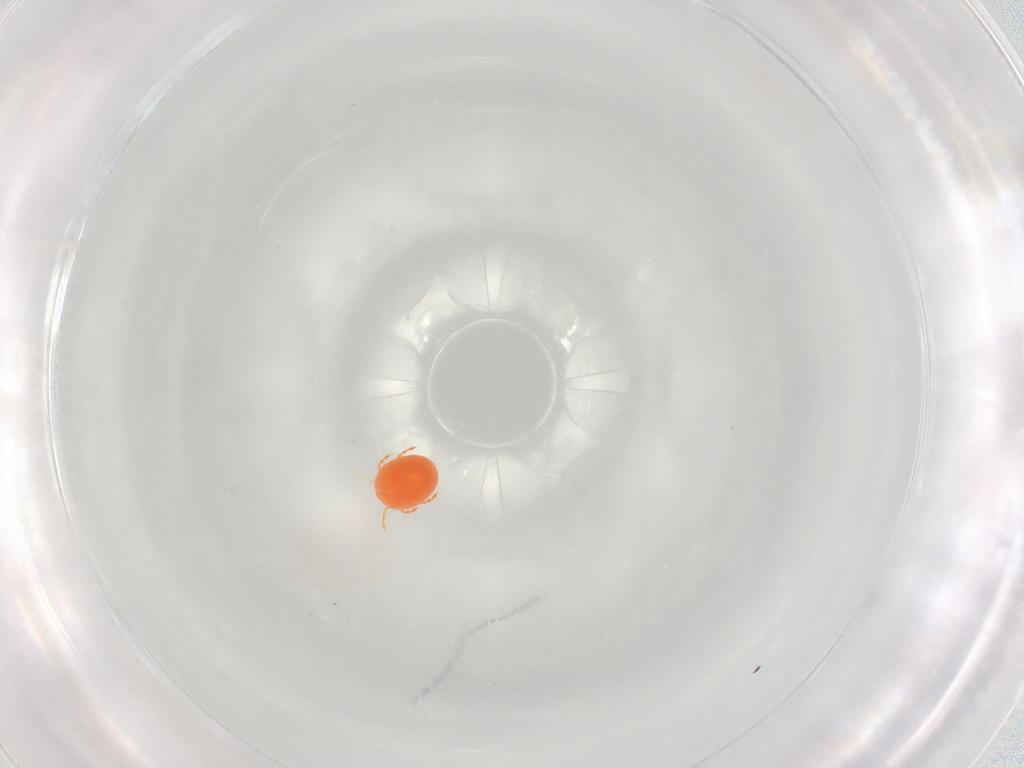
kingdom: Animalia
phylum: Arthropoda
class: Arachnida
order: Trombidiformes
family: Hydryphantidae
